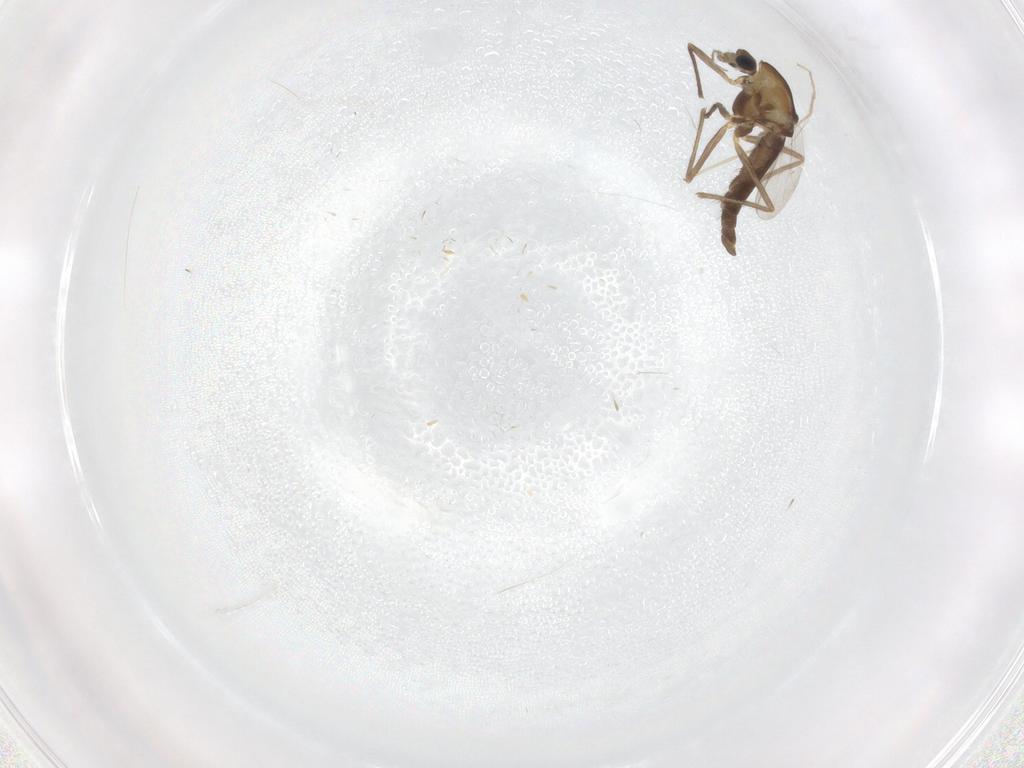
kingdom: Animalia
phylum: Arthropoda
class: Insecta
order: Diptera
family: Chironomidae
